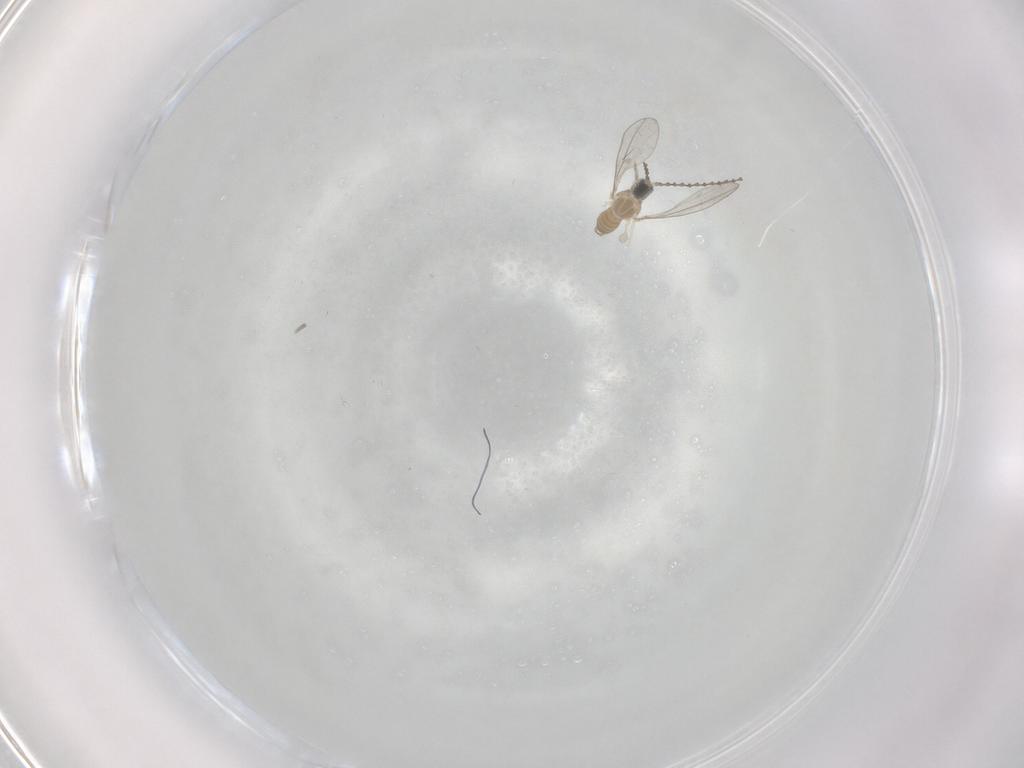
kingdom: Animalia
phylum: Arthropoda
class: Insecta
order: Diptera
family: Cecidomyiidae
